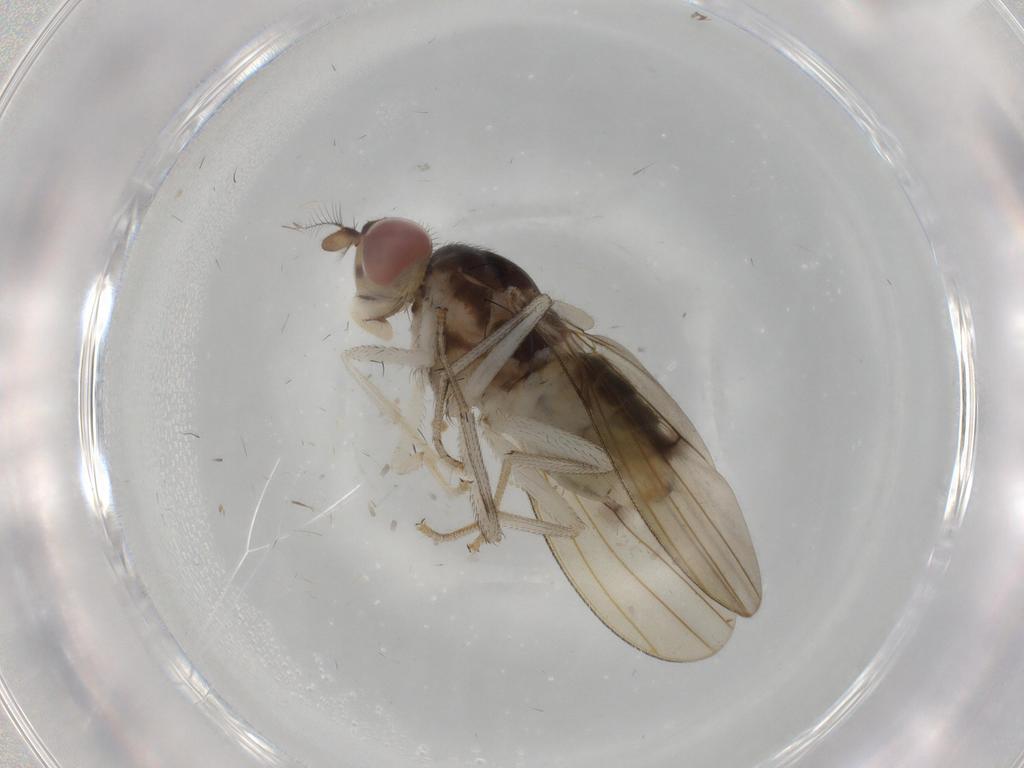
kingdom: Animalia
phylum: Arthropoda
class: Insecta
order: Diptera
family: Lauxaniidae
